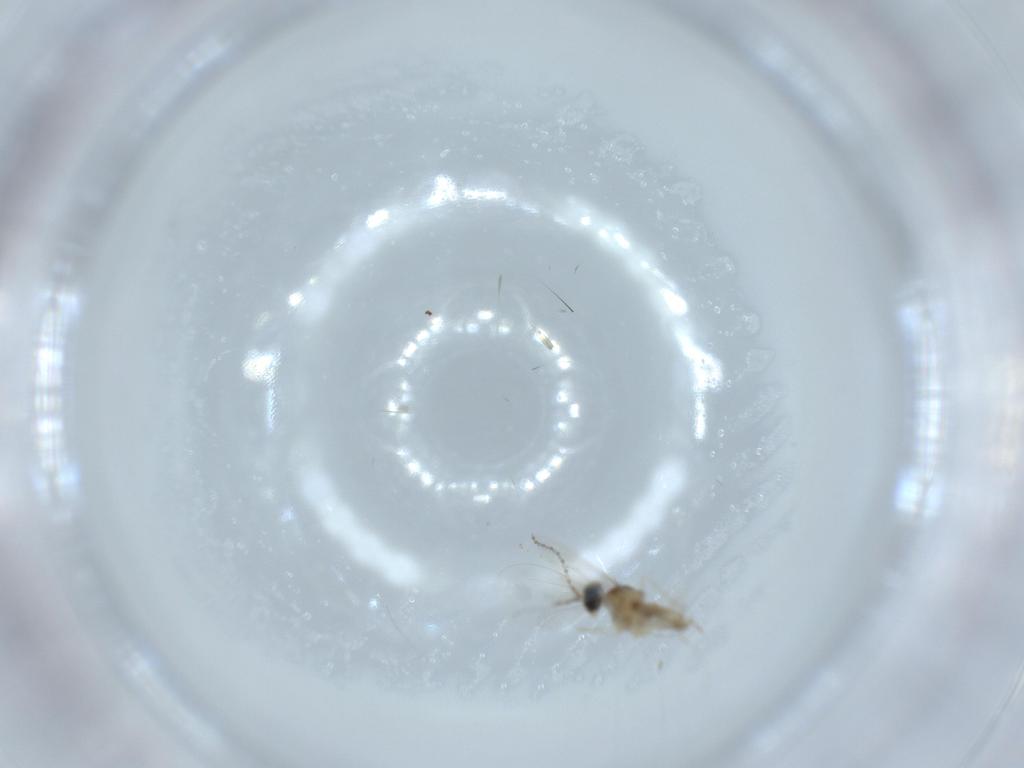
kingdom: Animalia
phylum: Arthropoda
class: Insecta
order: Diptera
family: Cecidomyiidae
